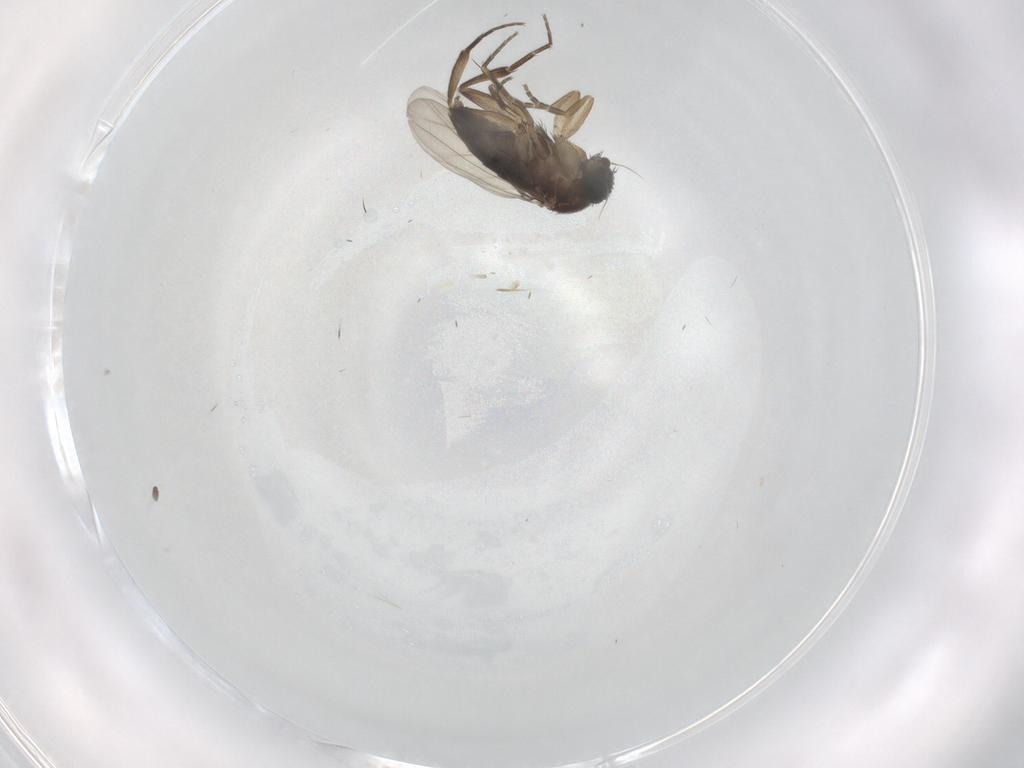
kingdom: Animalia
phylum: Arthropoda
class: Insecta
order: Diptera
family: Phoridae
